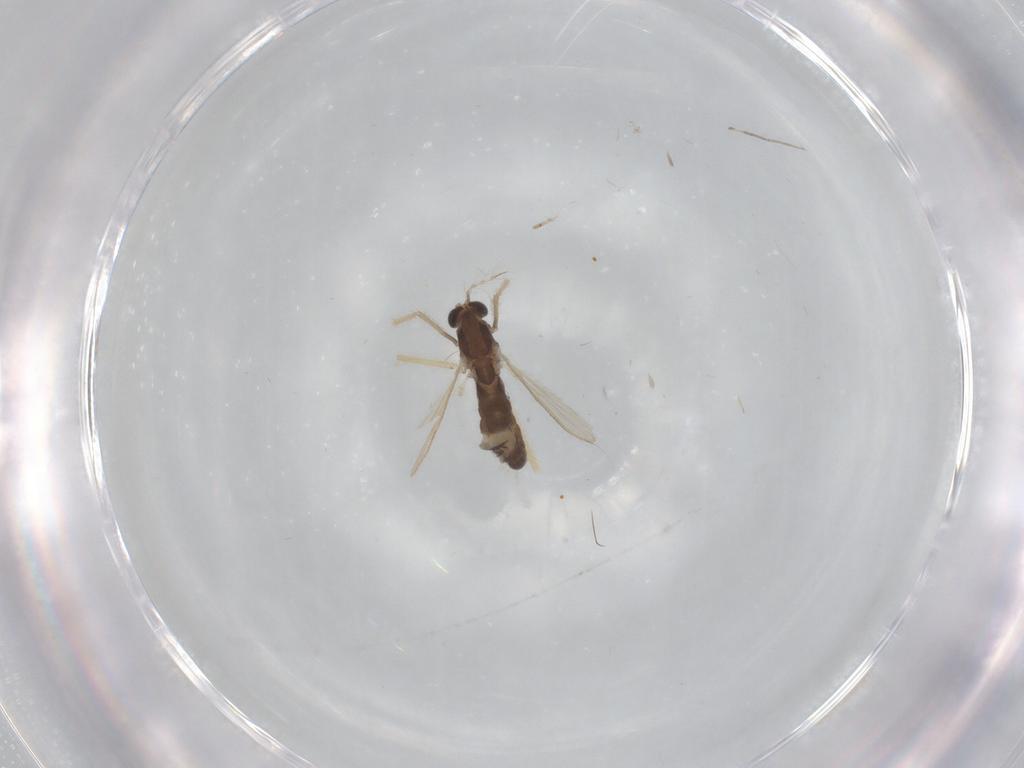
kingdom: Animalia
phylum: Arthropoda
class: Insecta
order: Diptera
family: Chironomidae
